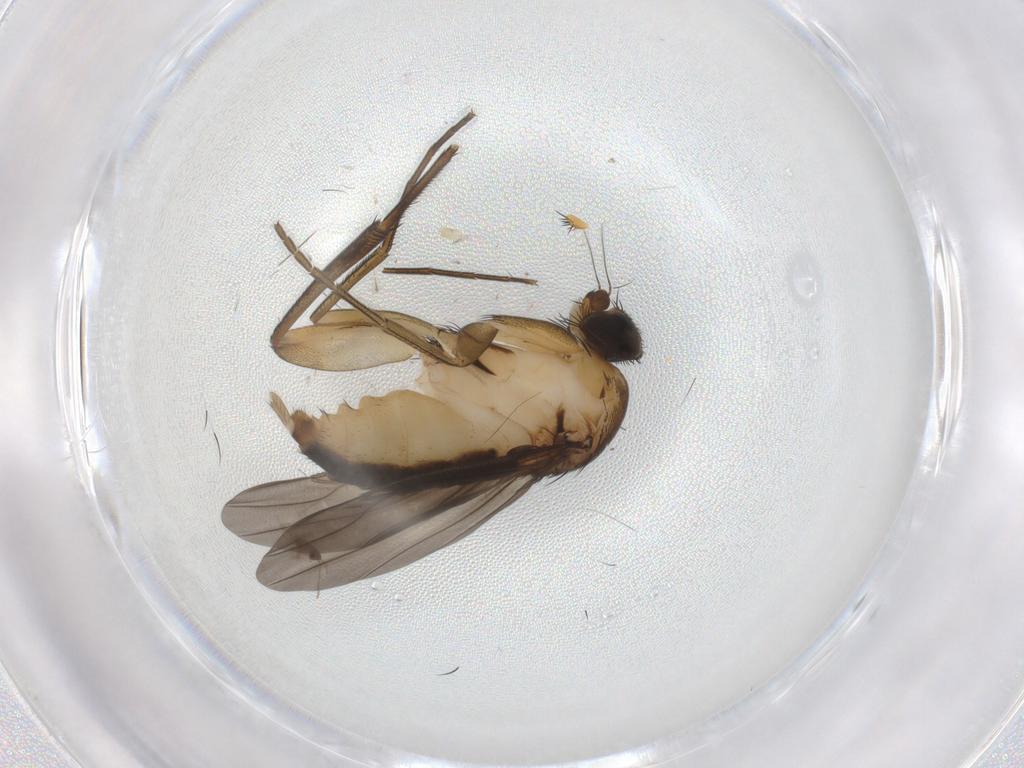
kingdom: Animalia
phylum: Arthropoda
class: Insecta
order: Diptera
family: Phoridae
